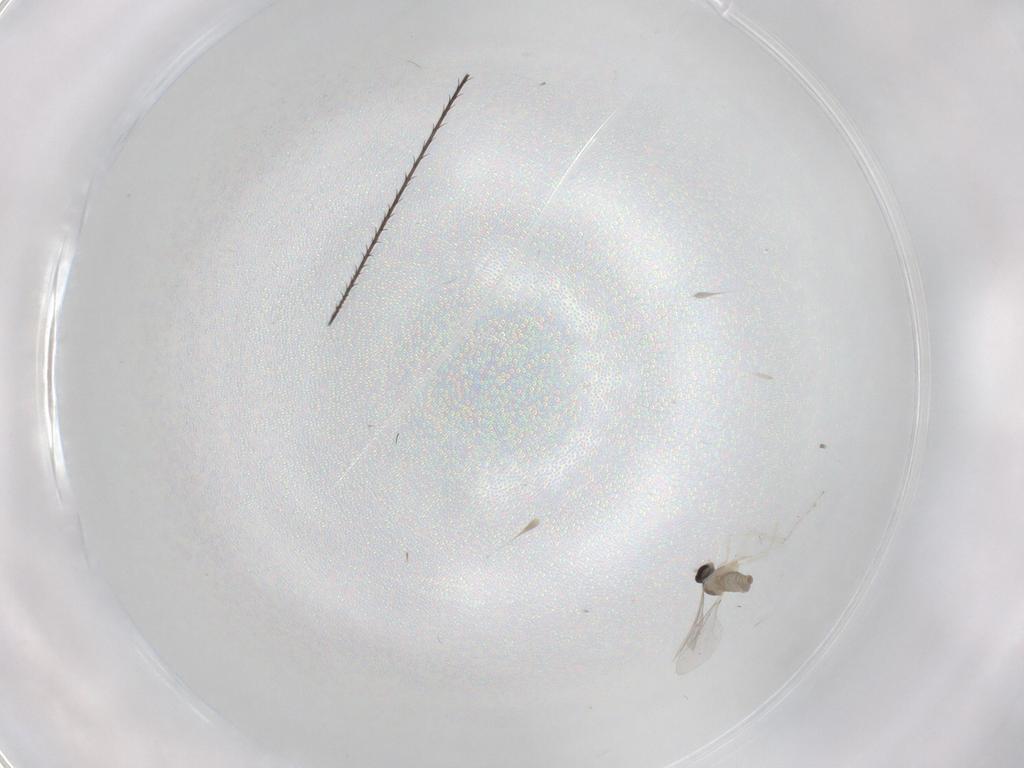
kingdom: Animalia
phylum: Arthropoda
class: Insecta
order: Diptera
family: Cecidomyiidae
